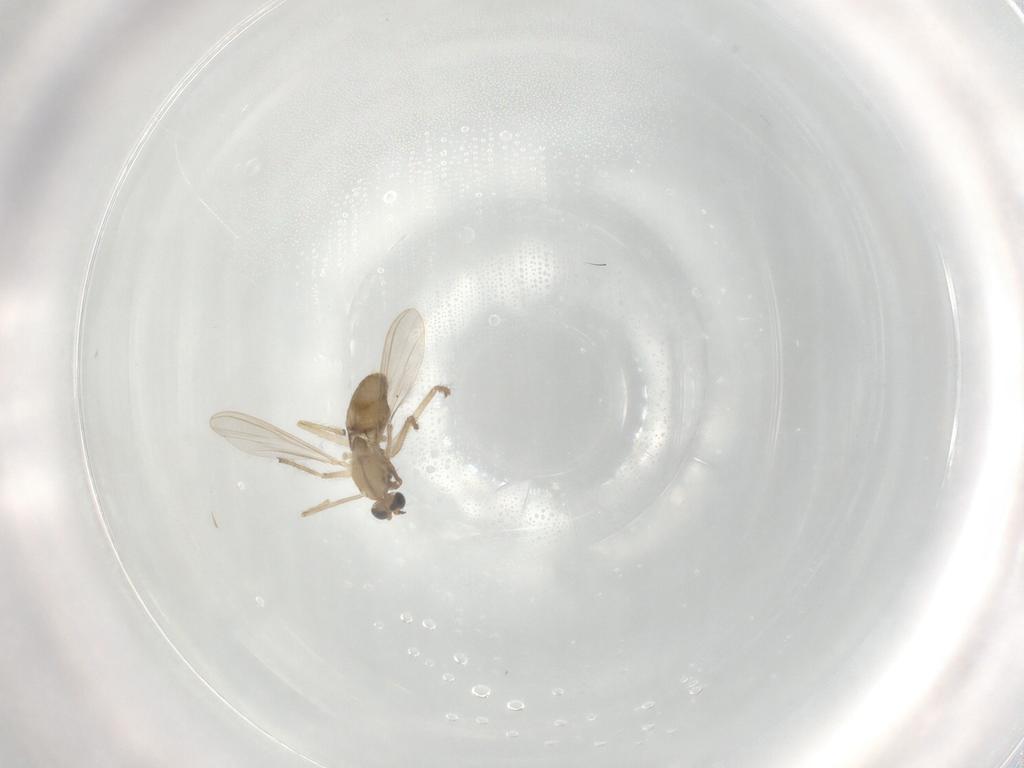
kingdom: Animalia
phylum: Arthropoda
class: Insecta
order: Diptera
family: Chironomidae
